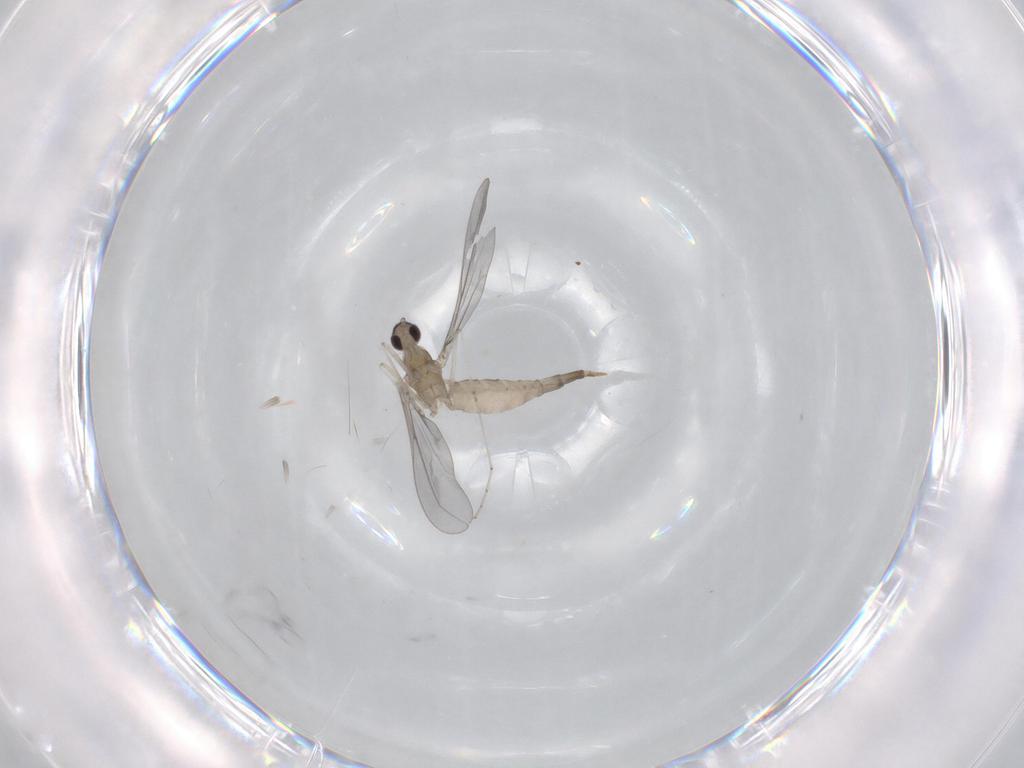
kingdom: Animalia
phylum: Arthropoda
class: Insecta
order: Diptera
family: Cecidomyiidae
